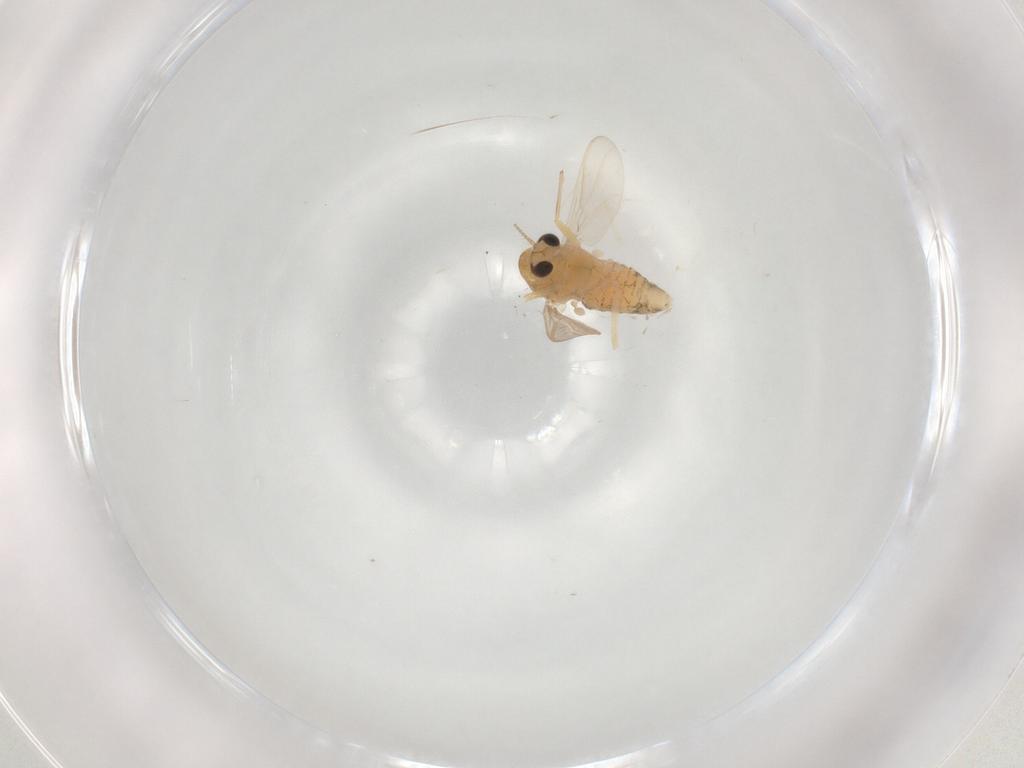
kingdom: Animalia
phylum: Arthropoda
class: Insecta
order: Diptera
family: Chironomidae
